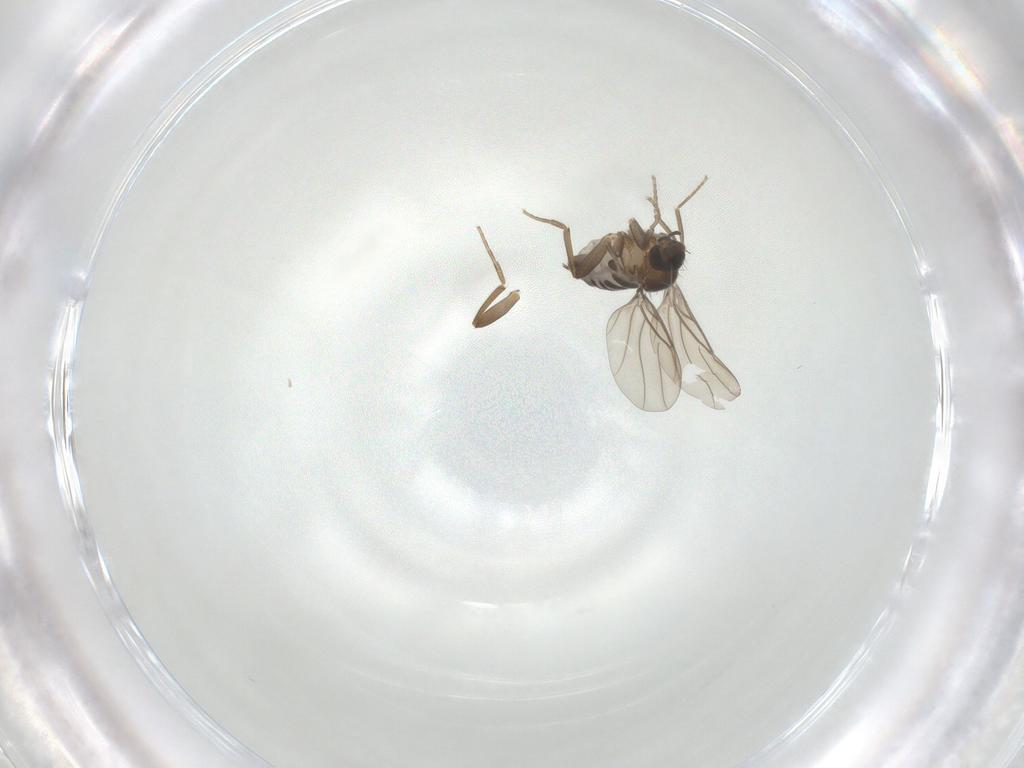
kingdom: Animalia
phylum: Arthropoda
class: Insecta
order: Diptera
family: Phoridae
